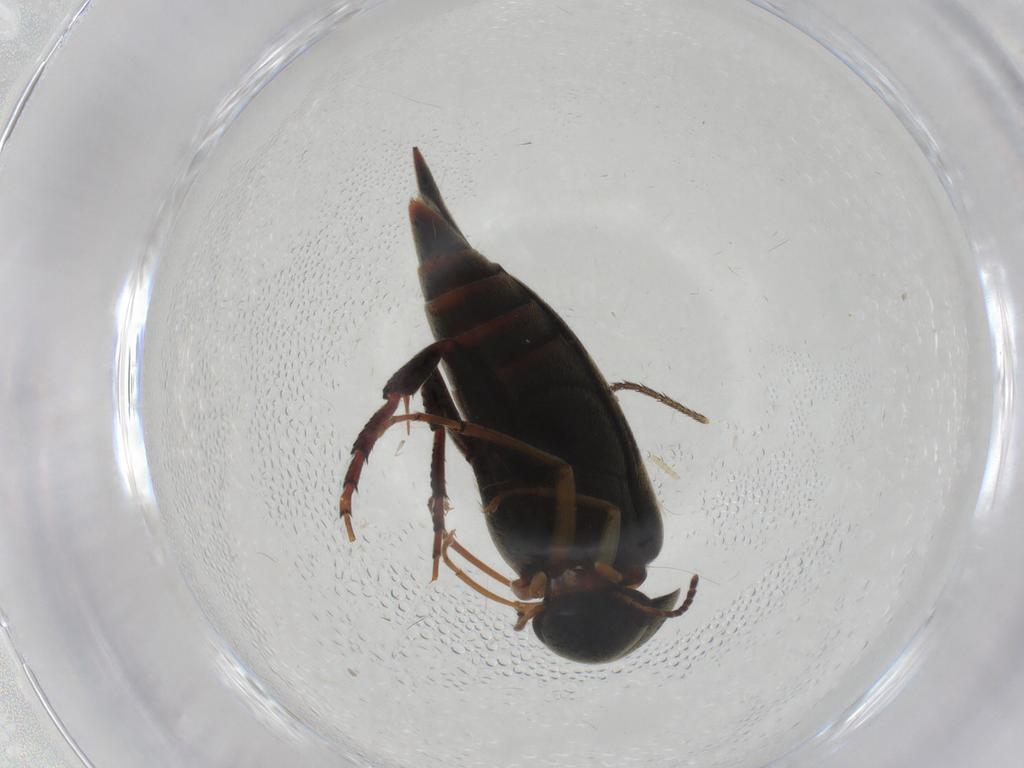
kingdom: Animalia
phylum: Arthropoda
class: Insecta
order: Coleoptera
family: Mordellidae
